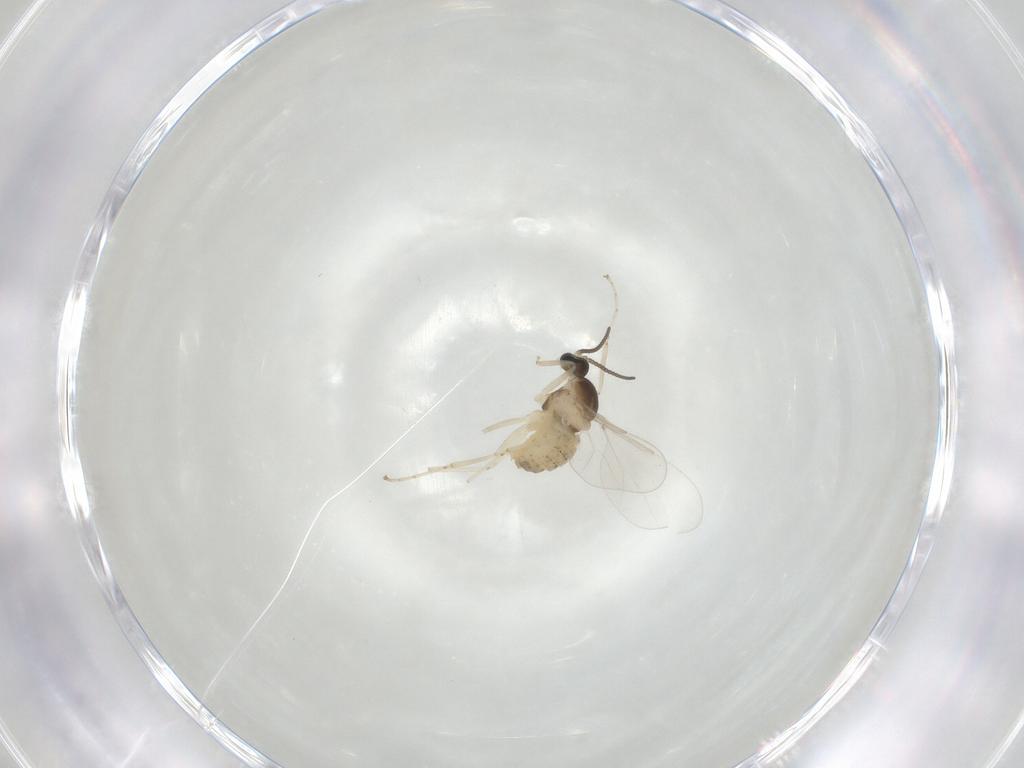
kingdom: Animalia
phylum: Arthropoda
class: Insecta
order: Diptera
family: Cecidomyiidae
